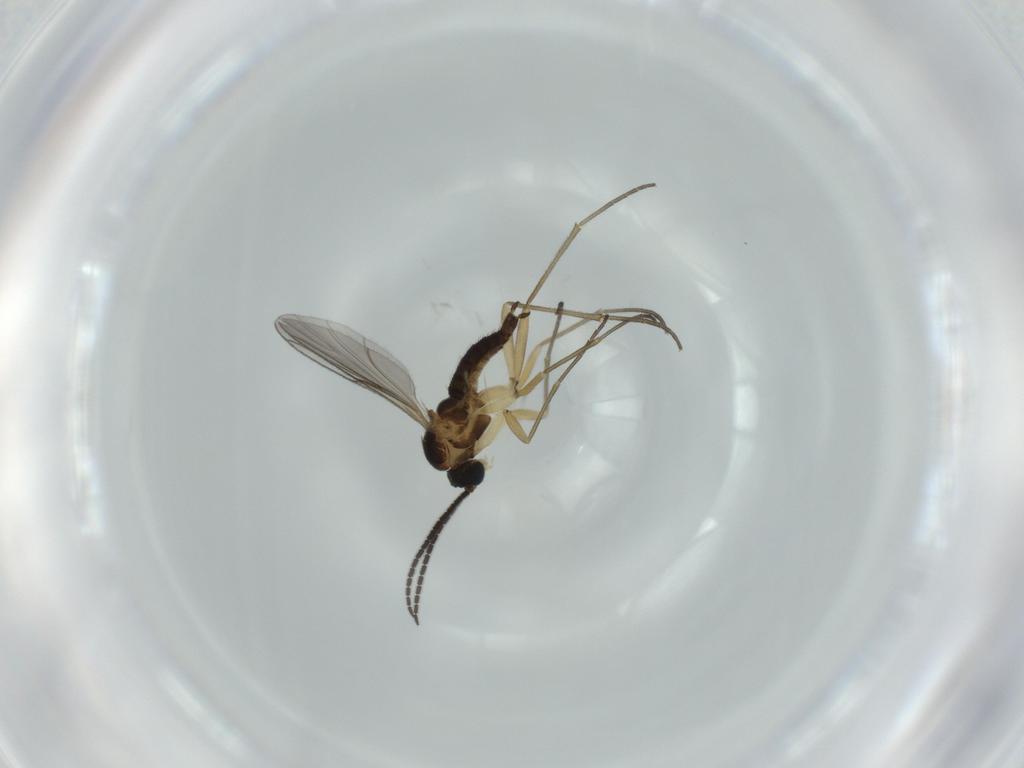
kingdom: Animalia
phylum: Arthropoda
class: Insecta
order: Diptera
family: Sciaridae
